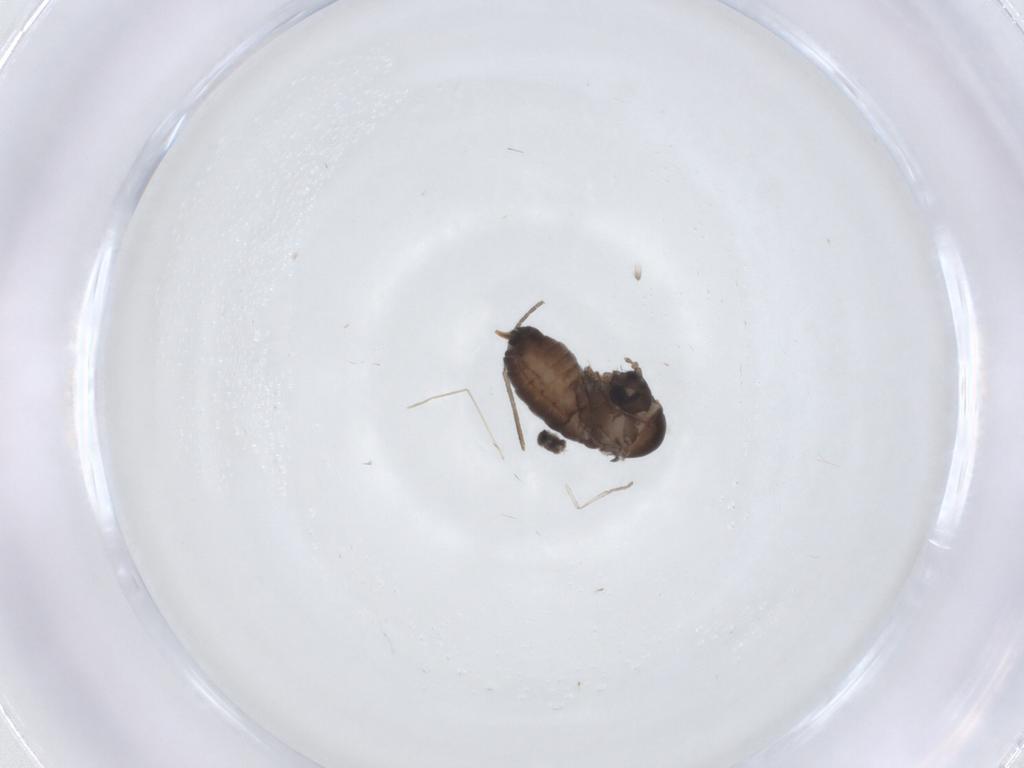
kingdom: Animalia
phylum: Arthropoda
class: Insecta
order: Diptera
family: Psychodidae
